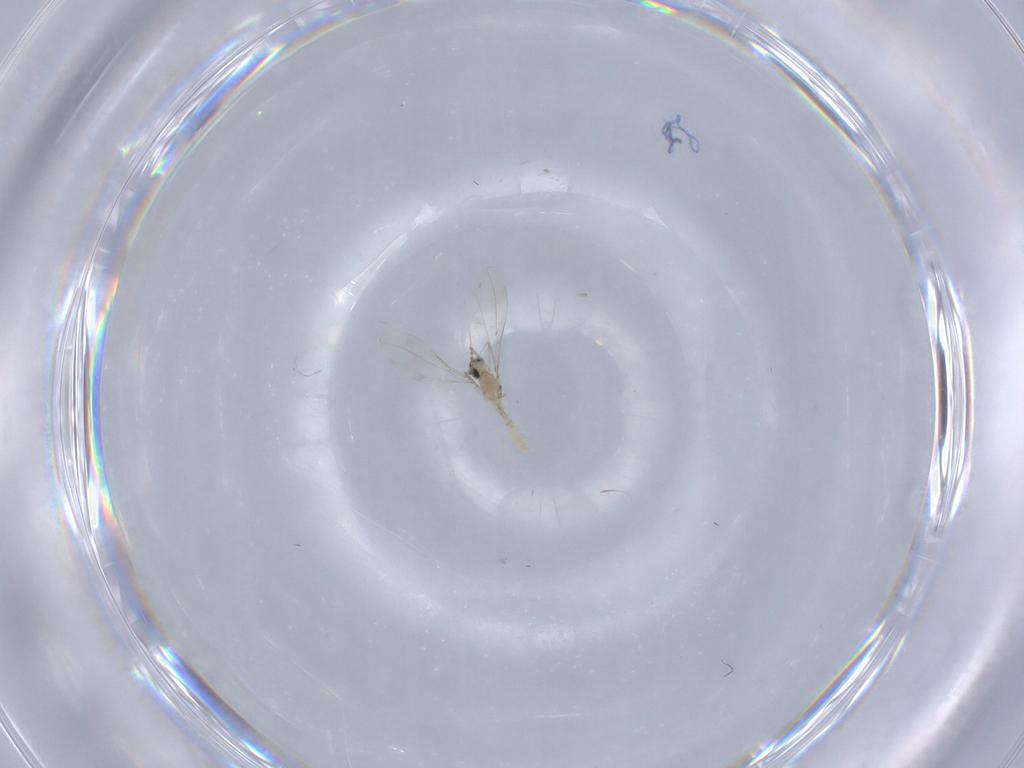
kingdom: Animalia
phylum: Arthropoda
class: Insecta
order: Diptera
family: Cecidomyiidae
